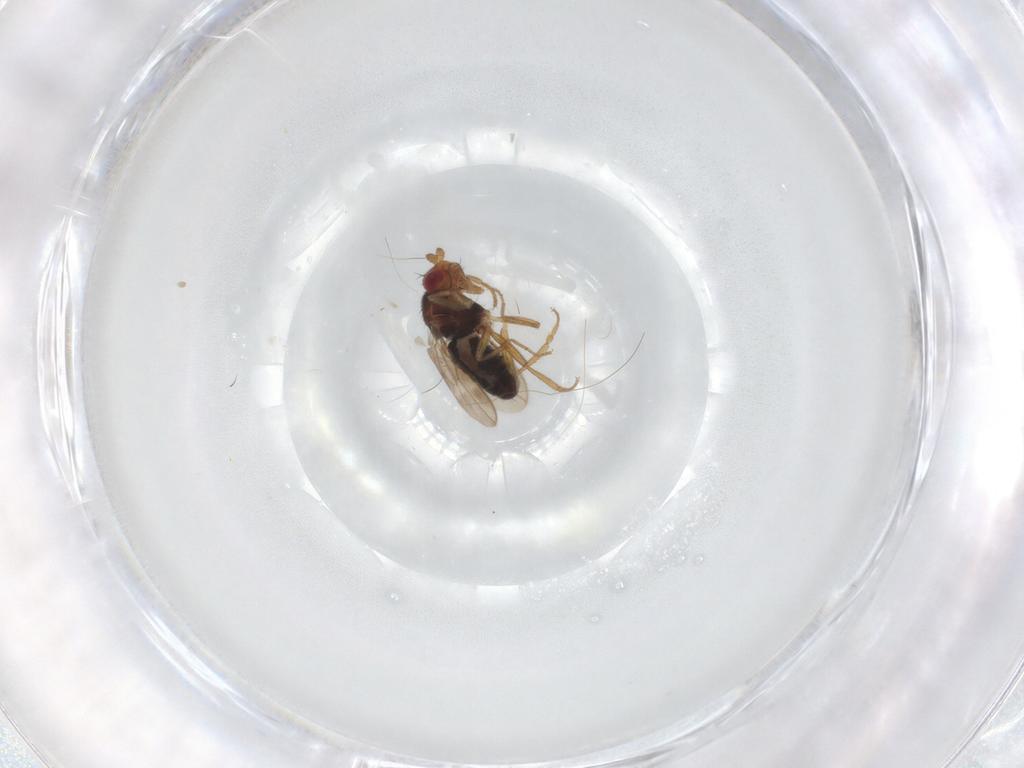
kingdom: Animalia
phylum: Arthropoda
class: Insecta
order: Diptera
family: Sphaeroceridae
